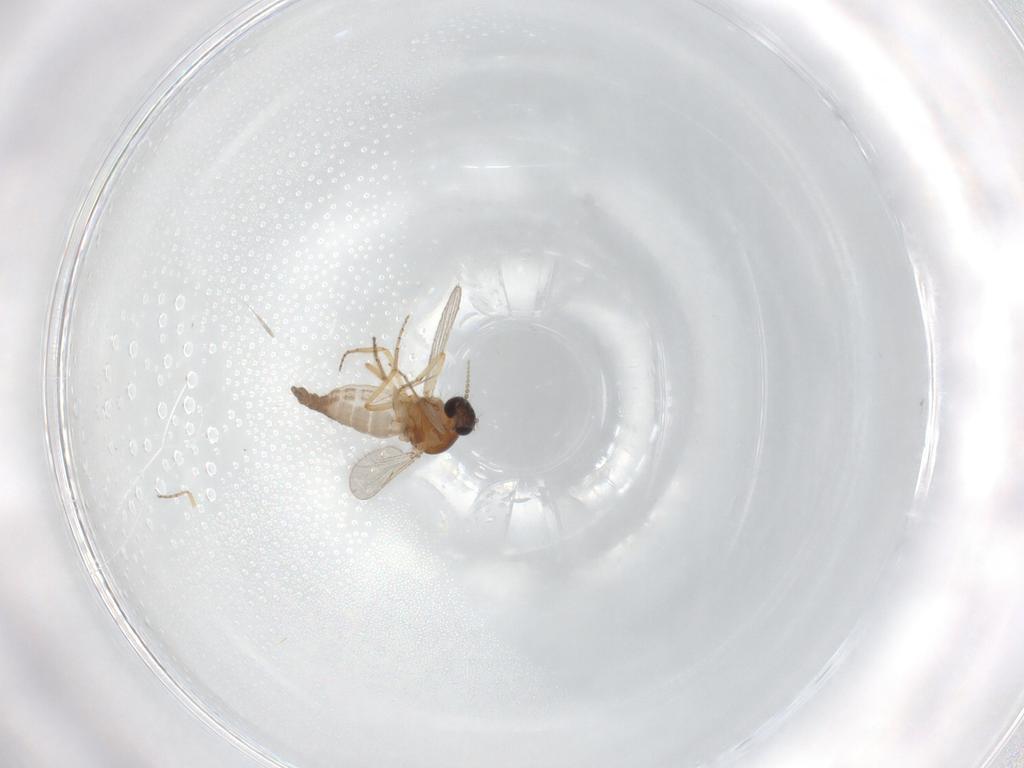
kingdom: Animalia
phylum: Arthropoda
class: Insecta
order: Diptera
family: Ceratopogonidae
